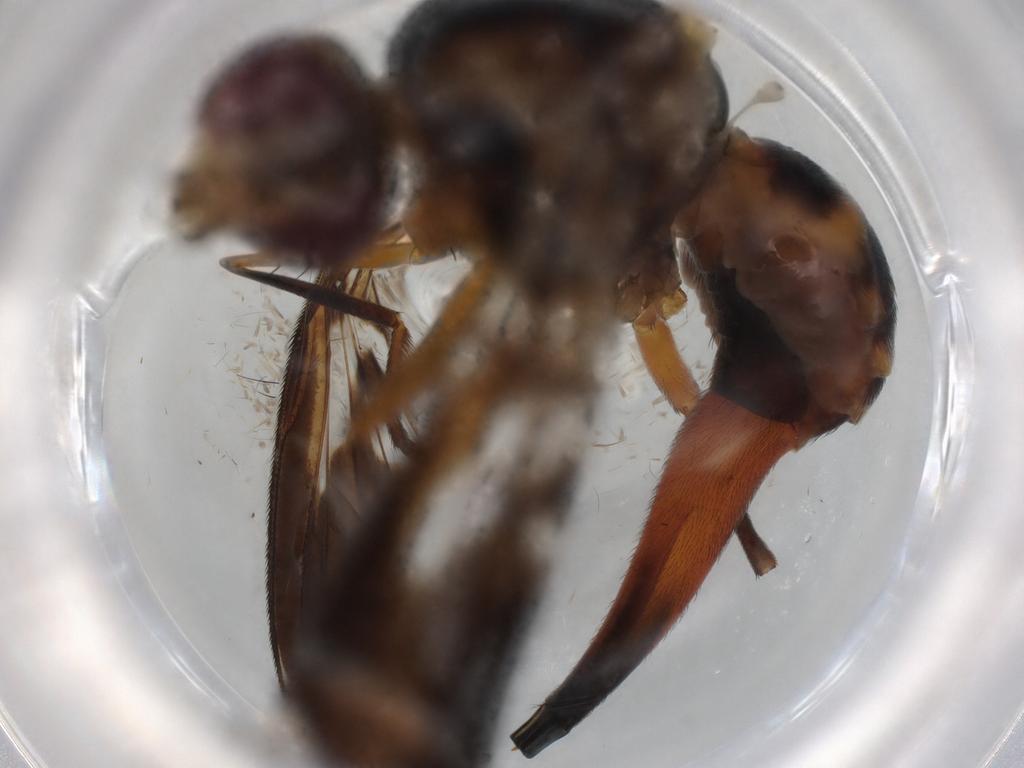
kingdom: Animalia
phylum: Arthropoda
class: Insecta
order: Diptera
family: Tephritidae
